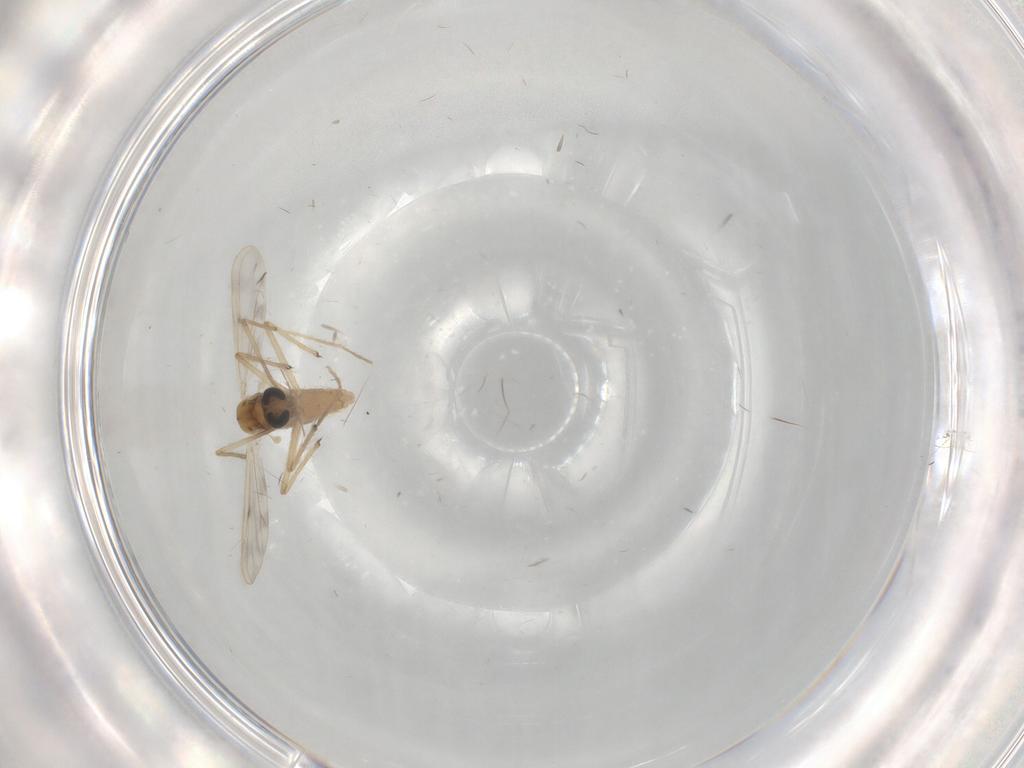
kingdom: Animalia
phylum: Arthropoda
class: Insecta
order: Diptera
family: Chironomidae
